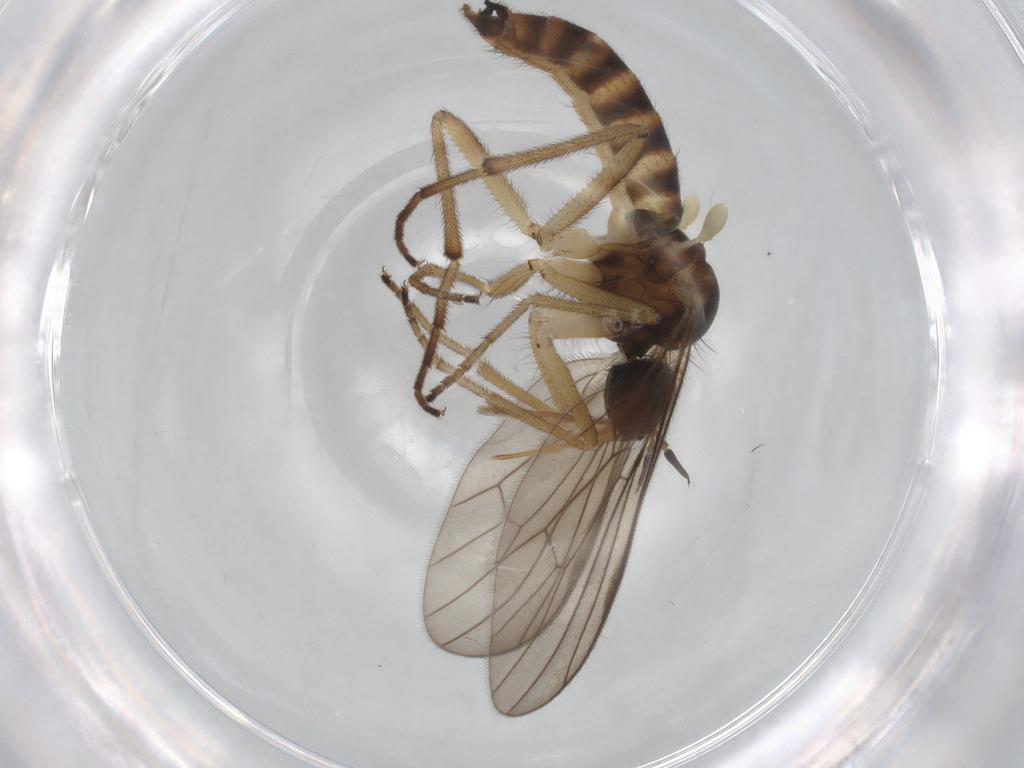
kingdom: Animalia
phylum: Arthropoda
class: Insecta
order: Diptera
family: Empididae
